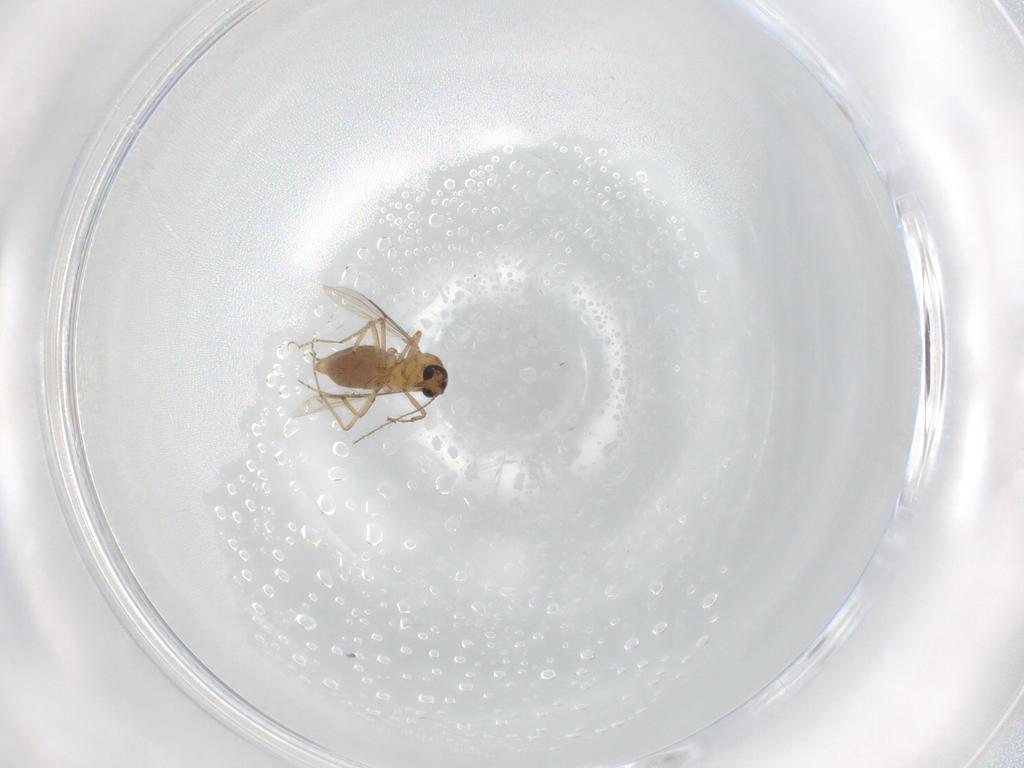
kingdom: Animalia
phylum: Arthropoda
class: Insecta
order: Diptera
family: Ceratopogonidae
